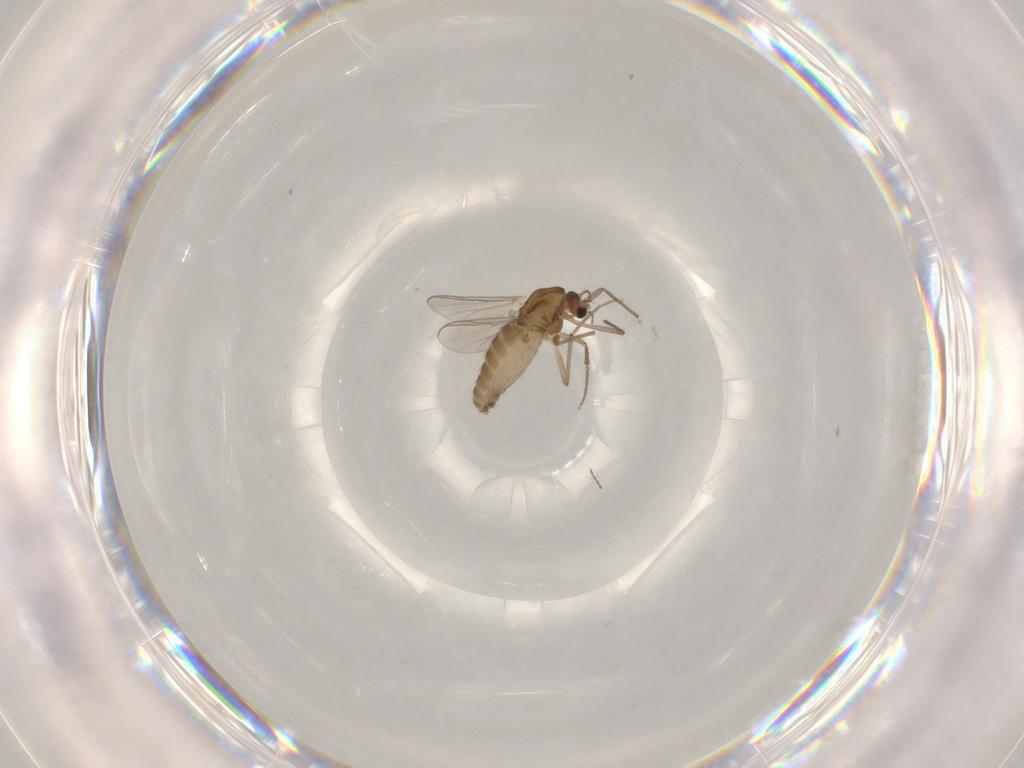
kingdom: Animalia
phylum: Arthropoda
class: Insecta
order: Diptera
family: Chironomidae
